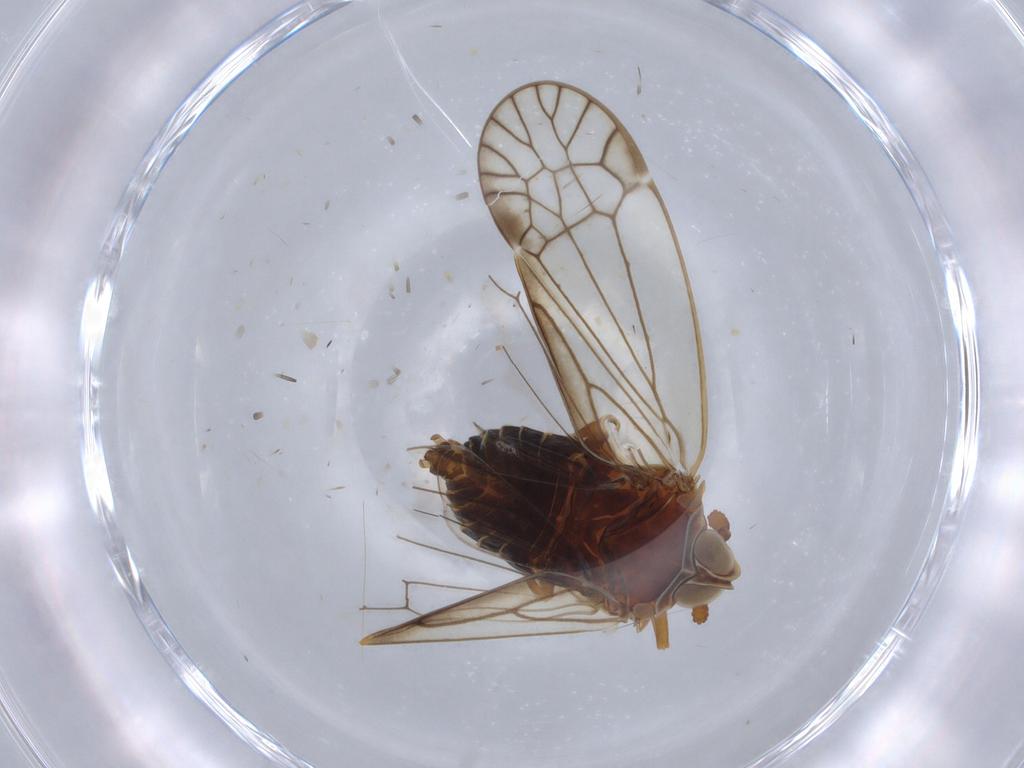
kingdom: Animalia
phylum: Arthropoda
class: Insecta
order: Hemiptera
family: Kinnaridae
